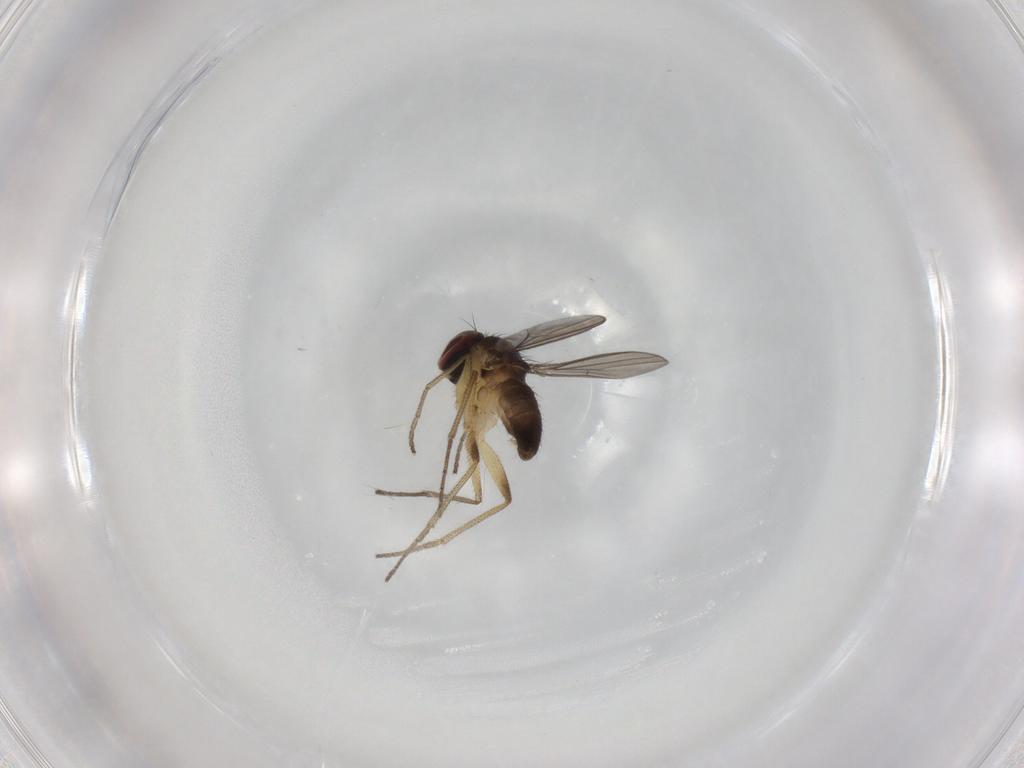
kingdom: Animalia
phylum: Arthropoda
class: Insecta
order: Diptera
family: Dolichopodidae
